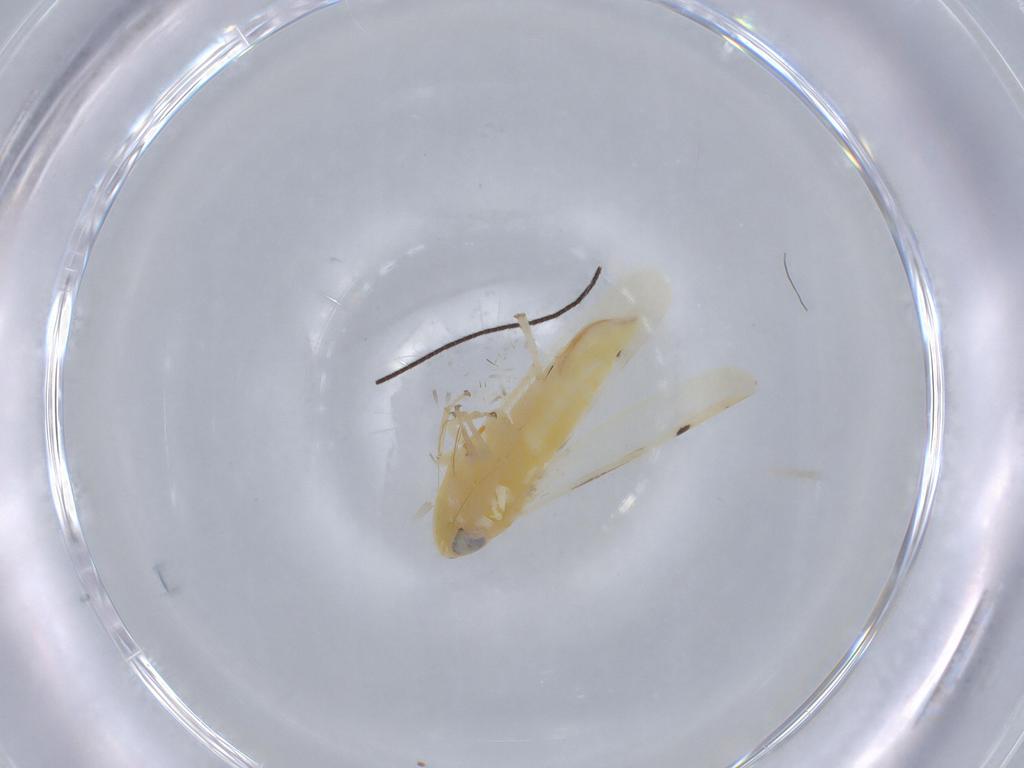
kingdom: Animalia
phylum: Arthropoda
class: Insecta
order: Hemiptera
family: Cicadellidae
